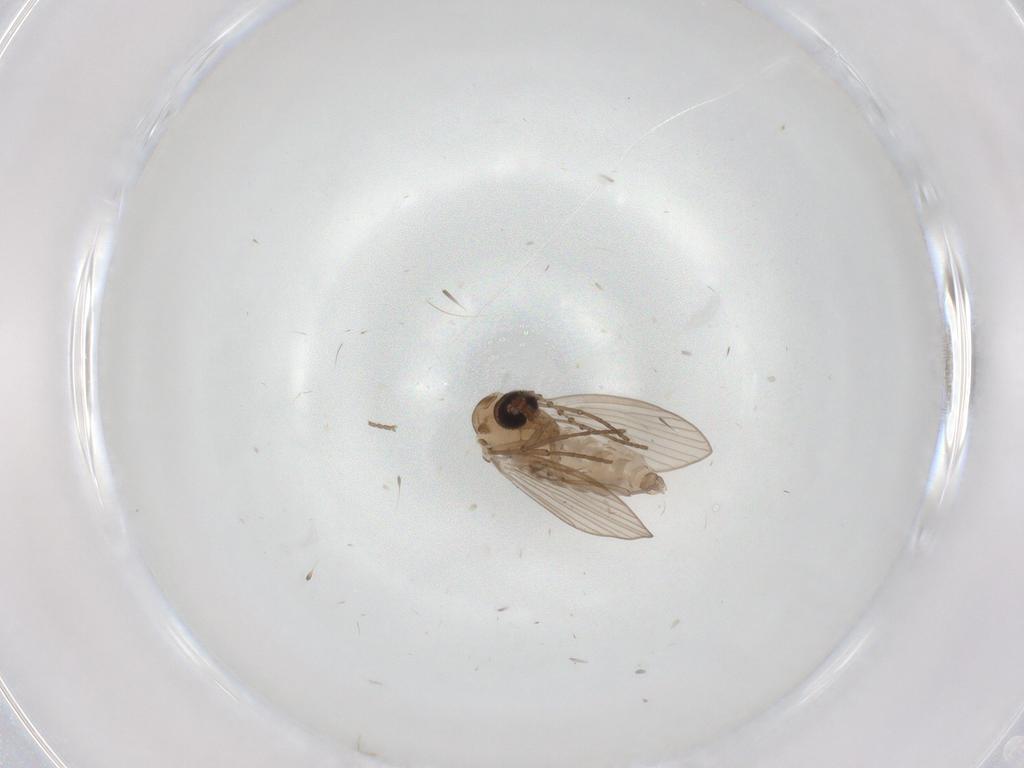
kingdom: Animalia
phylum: Arthropoda
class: Insecta
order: Diptera
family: Psychodidae
